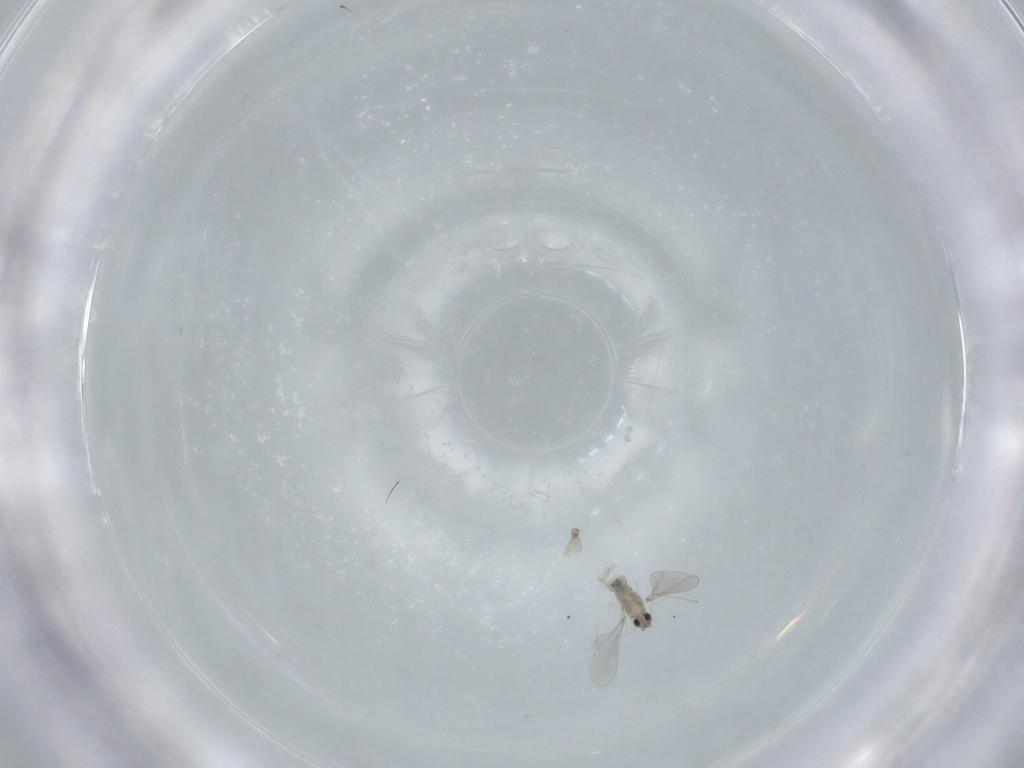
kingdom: Animalia
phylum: Arthropoda
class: Insecta
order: Diptera
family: Cecidomyiidae
